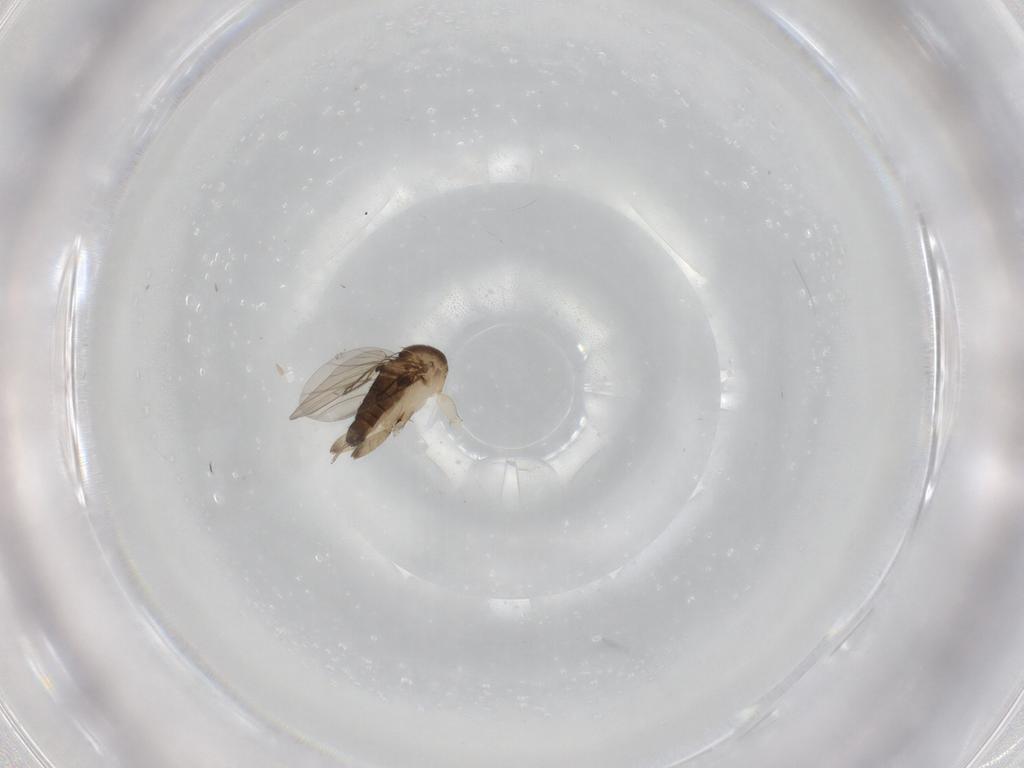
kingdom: Animalia
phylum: Arthropoda
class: Insecta
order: Diptera
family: Phoridae
